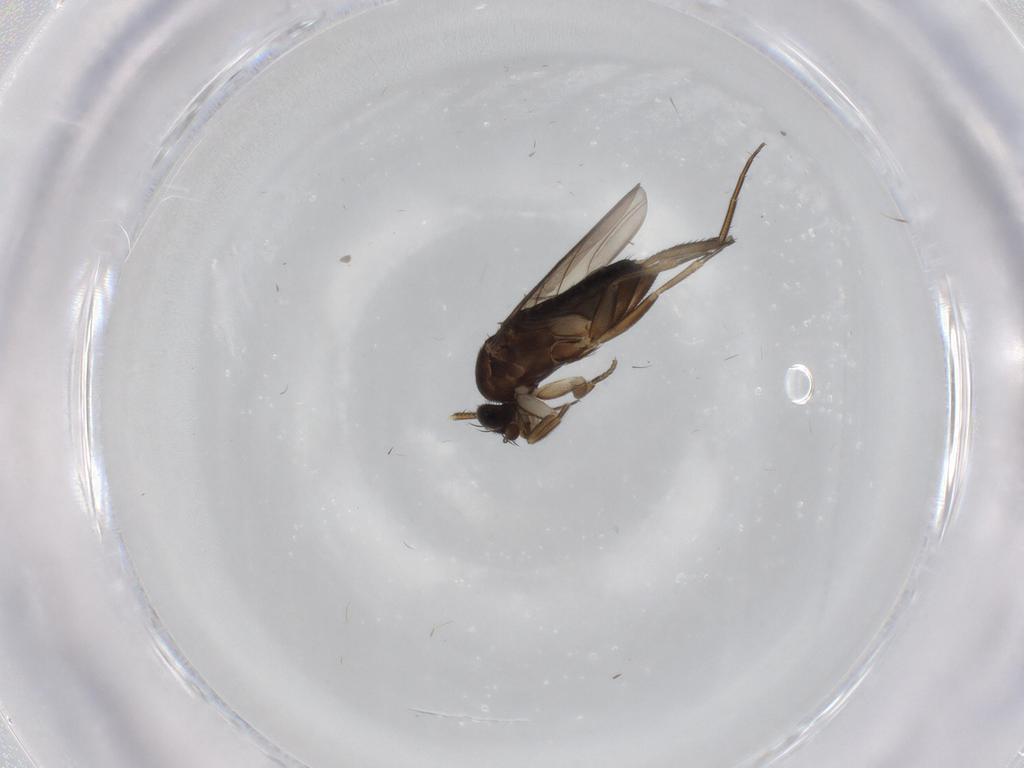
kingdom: Animalia
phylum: Arthropoda
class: Insecta
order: Diptera
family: Phoridae
